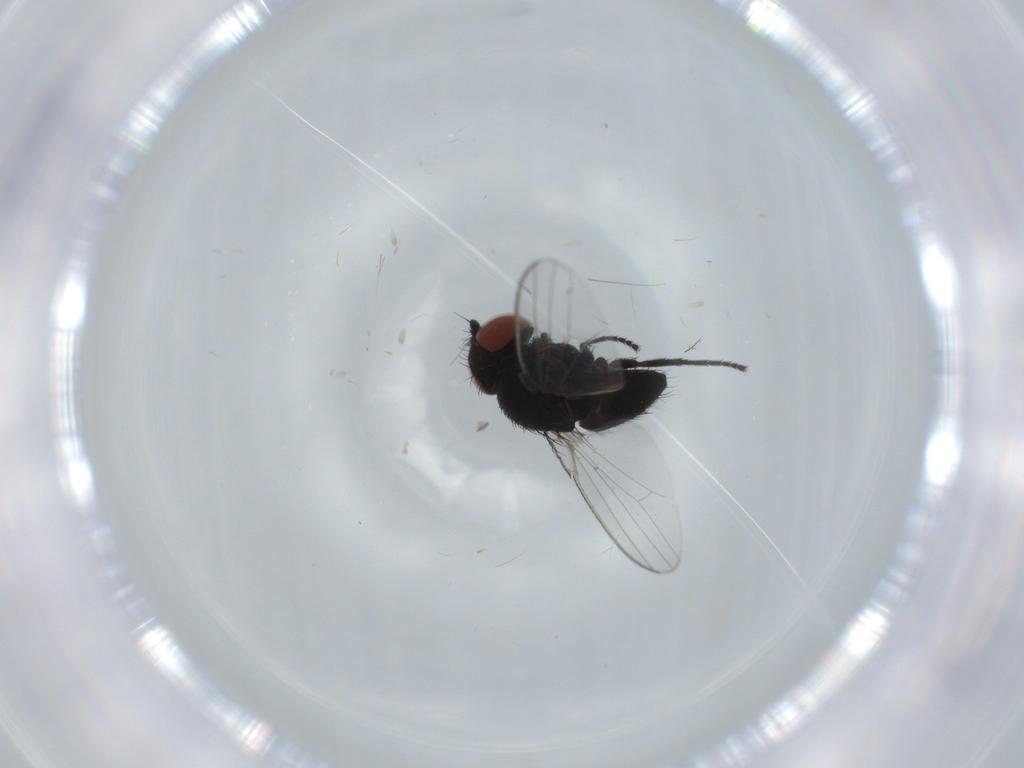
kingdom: Animalia
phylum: Arthropoda
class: Insecta
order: Diptera
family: Milichiidae
